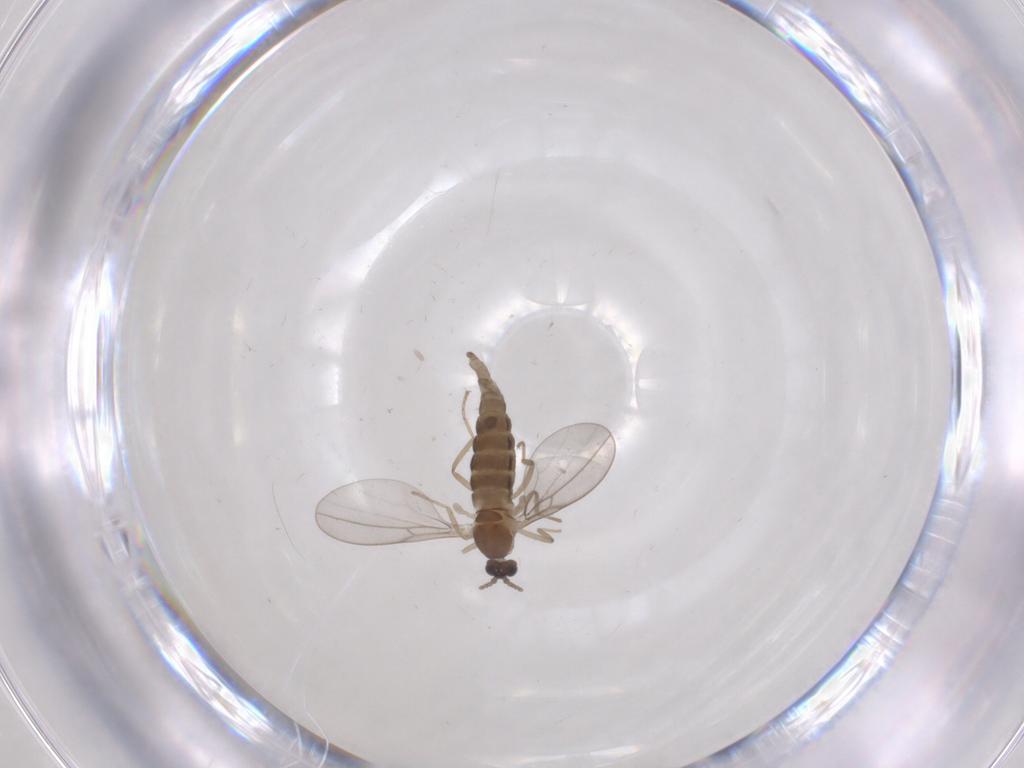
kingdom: Animalia
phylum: Arthropoda
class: Insecta
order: Diptera
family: Cecidomyiidae
